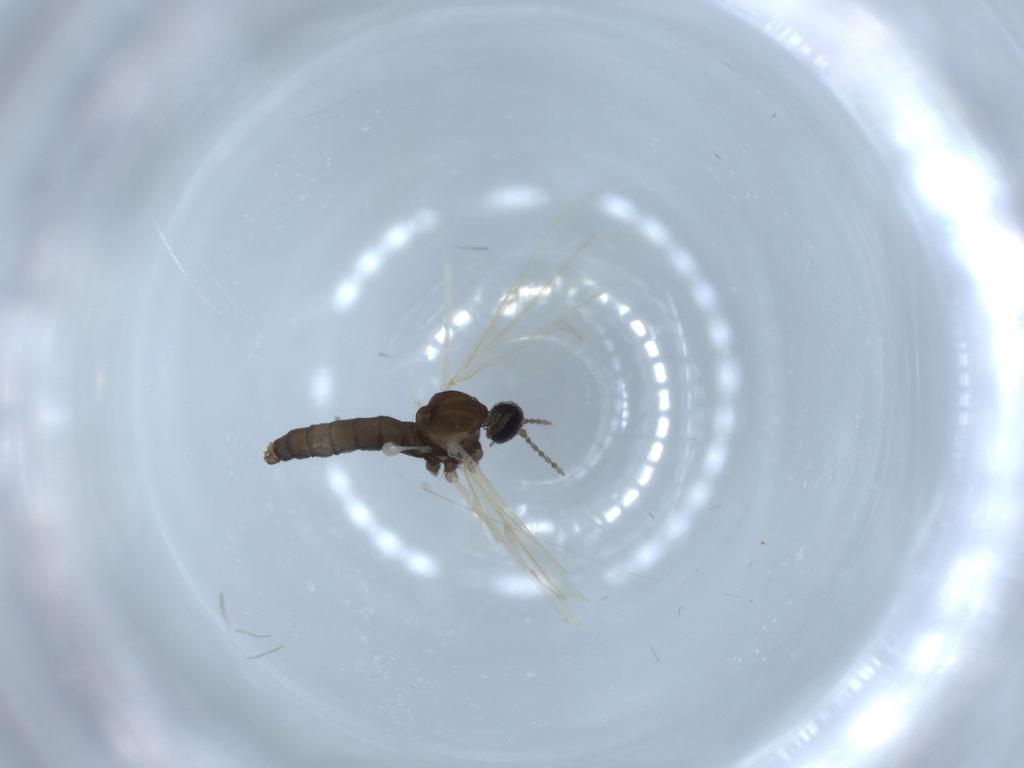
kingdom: Animalia
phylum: Arthropoda
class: Insecta
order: Diptera
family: Cecidomyiidae
